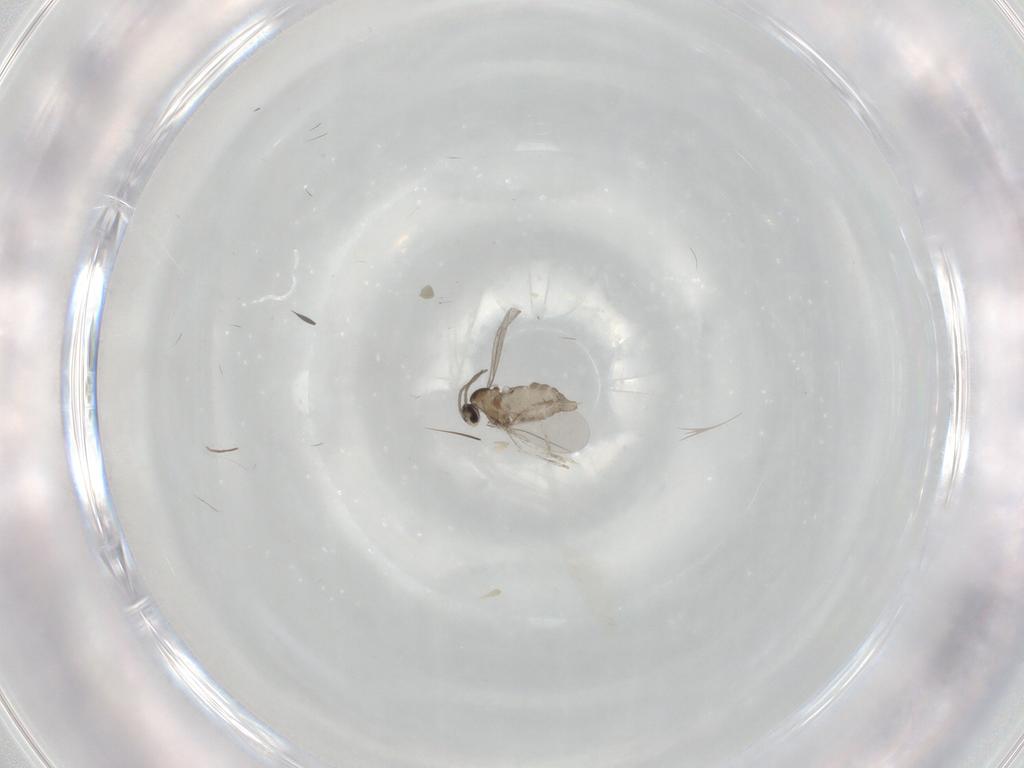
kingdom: Animalia
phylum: Arthropoda
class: Insecta
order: Diptera
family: Cecidomyiidae
